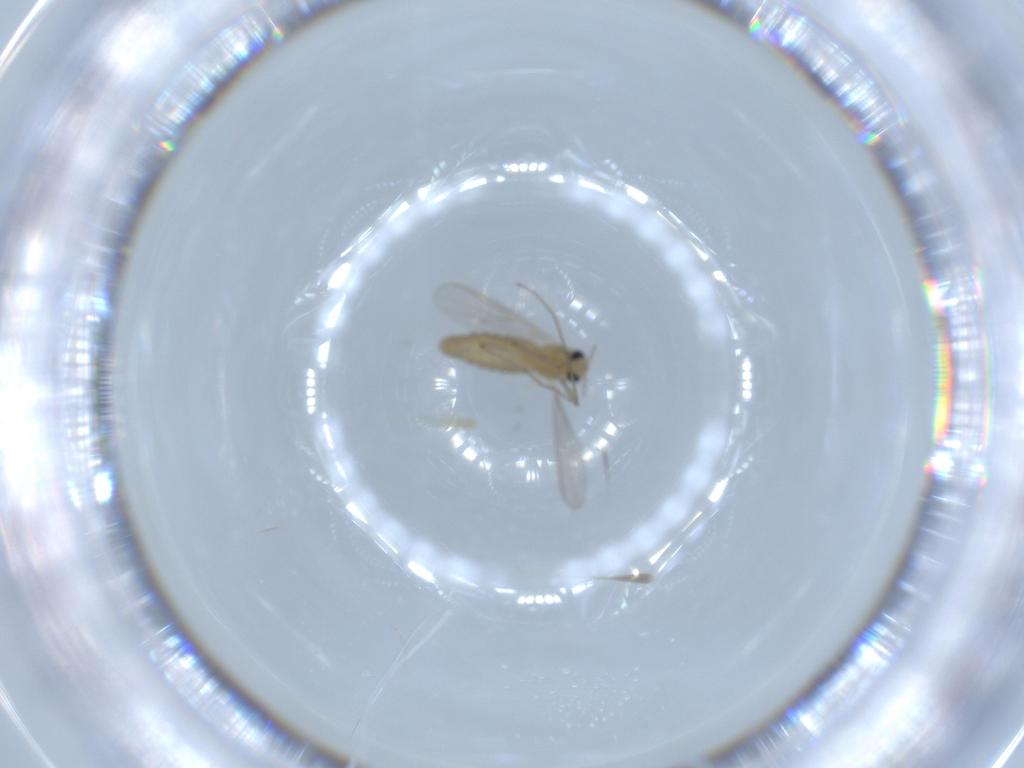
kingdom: Animalia
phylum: Arthropoda
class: Insecta
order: Diptera
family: Chironomidae
